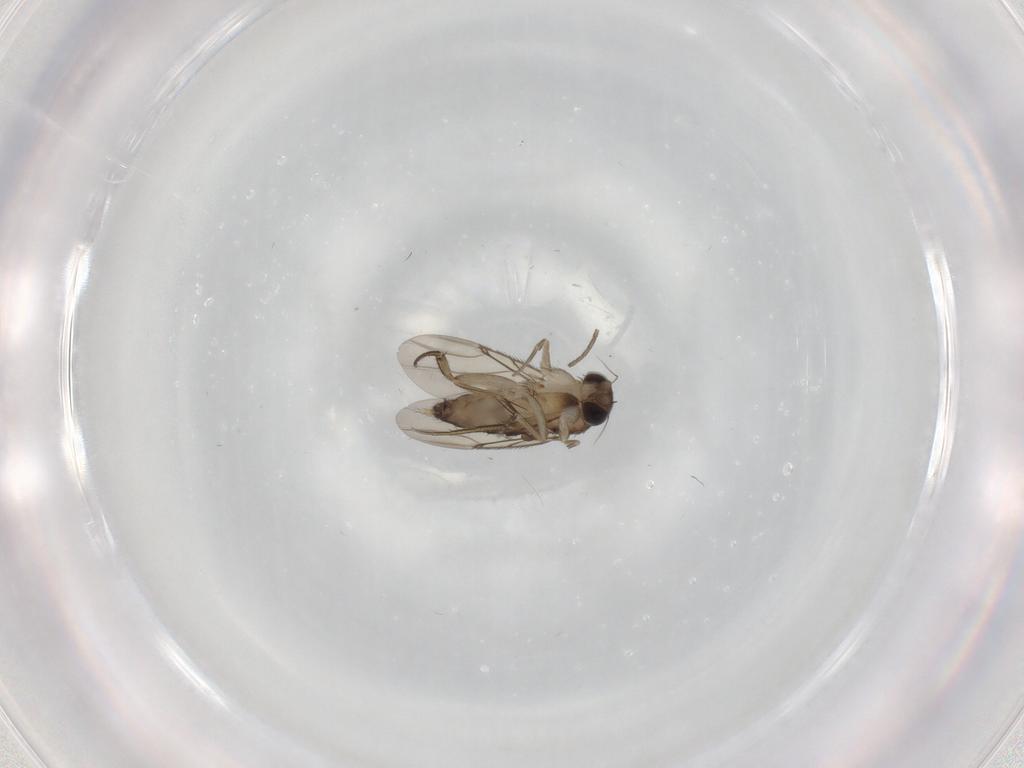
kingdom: Animalia
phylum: Arthropoda
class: Insecta
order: Diptera
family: Phoridae
